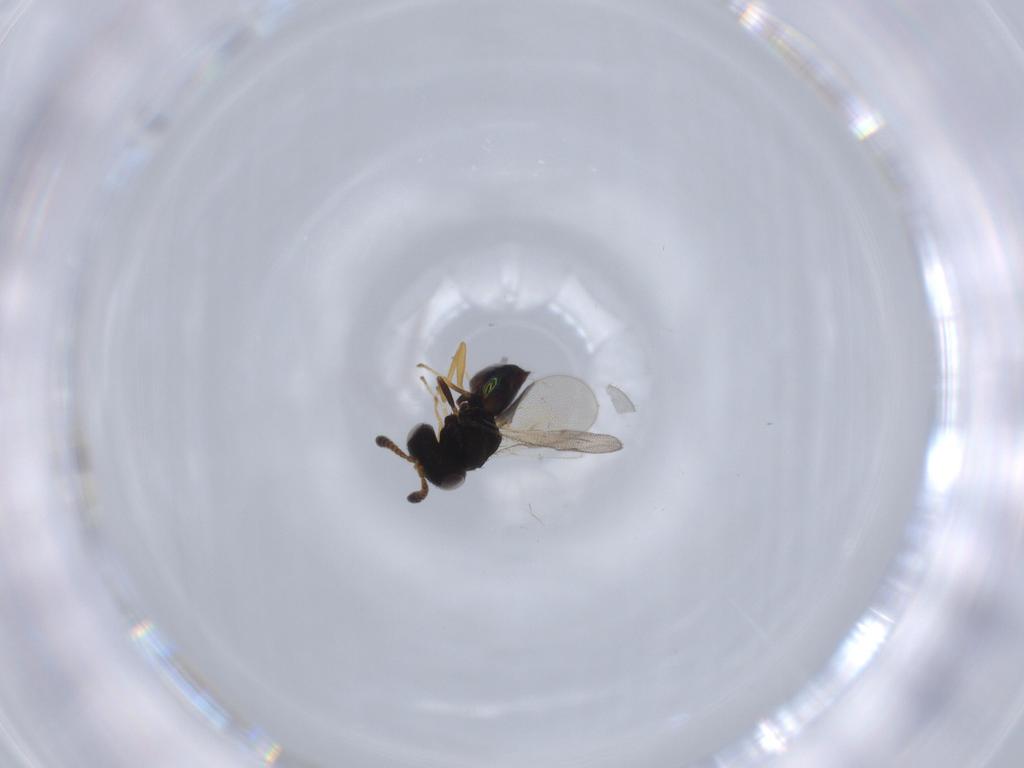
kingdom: Animalia
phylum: Arthropoda
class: Insecta
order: Hymenoptera
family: Pteromalidae
